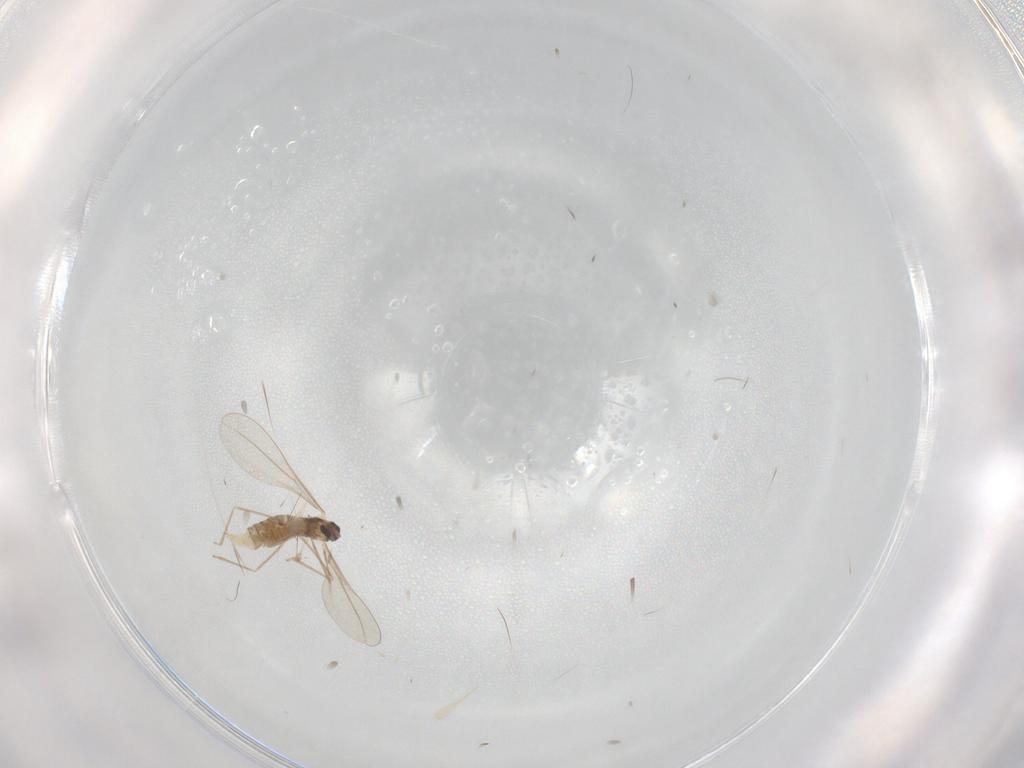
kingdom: Animalia
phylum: Arthropoda
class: Insecta
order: Diptera
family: Cecidomyiidae
